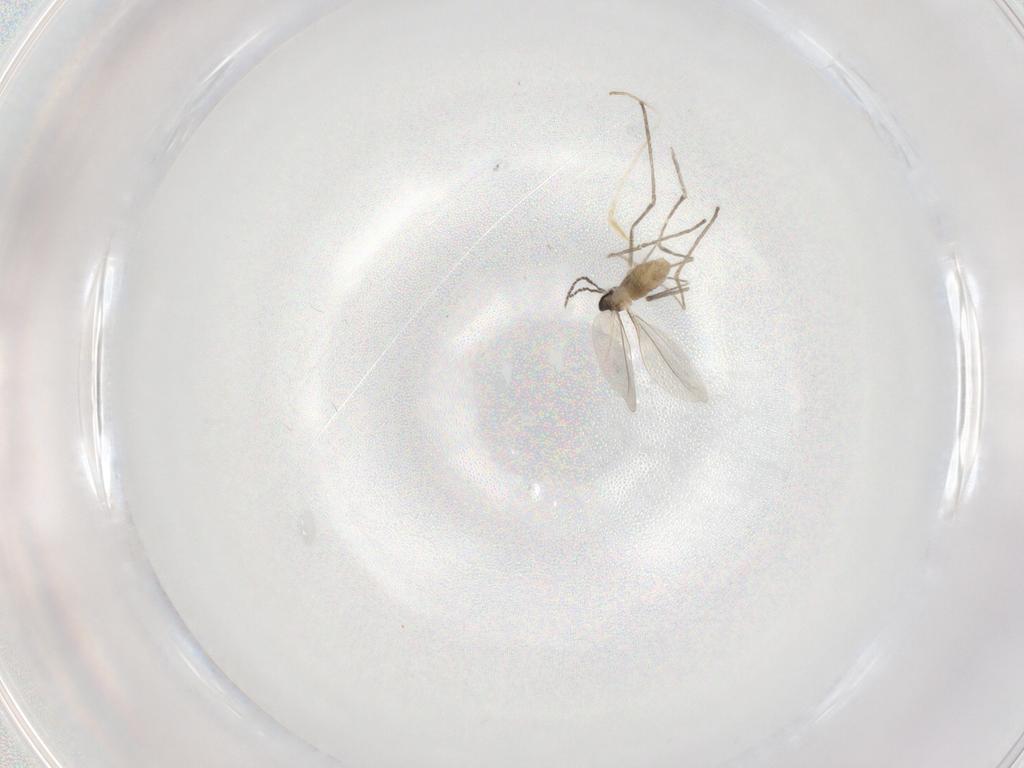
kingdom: Animalia
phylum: Arthropoda
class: Insecta
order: Diptera
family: Cecidomyiidae
